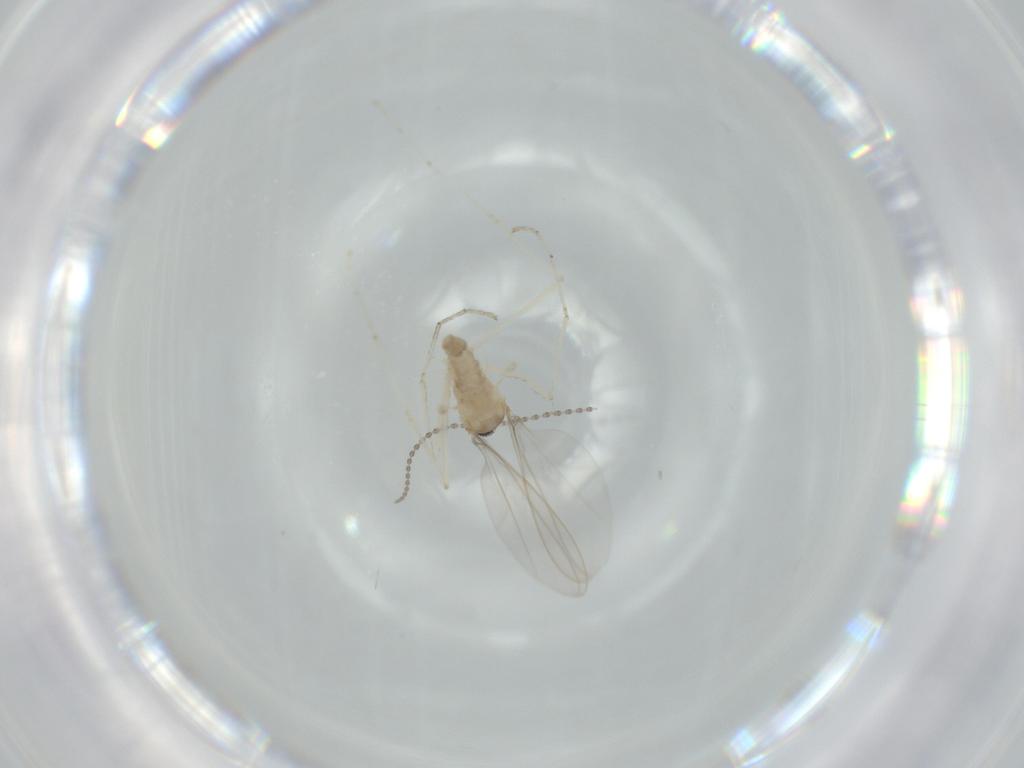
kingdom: Animalia
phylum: Arthropoda
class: Insecta
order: Diptera
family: Cecidomyiidae
